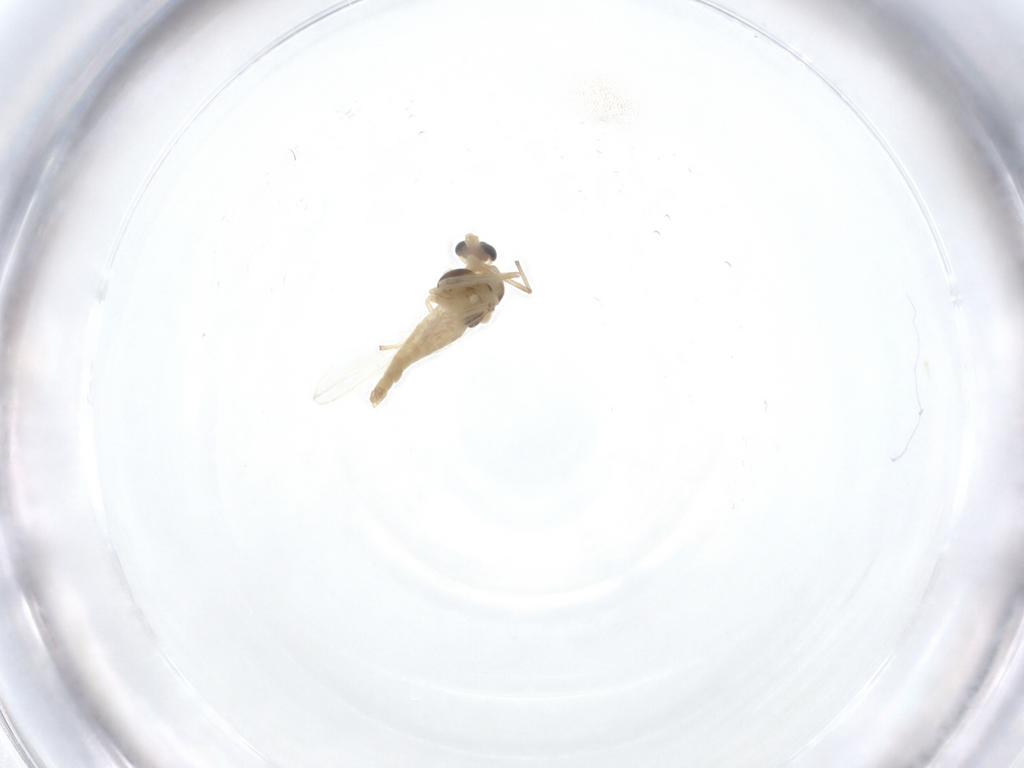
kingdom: Animalia
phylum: Arthropoda
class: Insecta
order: Diptera
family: Chironomidae
